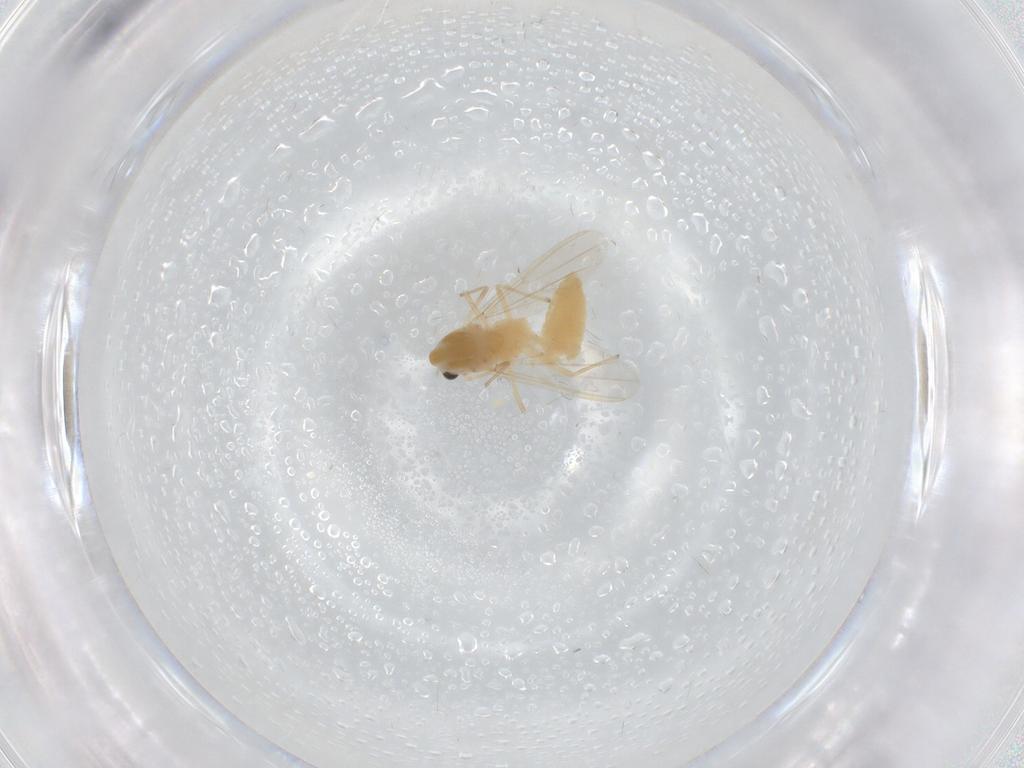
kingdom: Animalia
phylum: Arthropoda
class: Insecta
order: Diptera
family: Chironomidae
